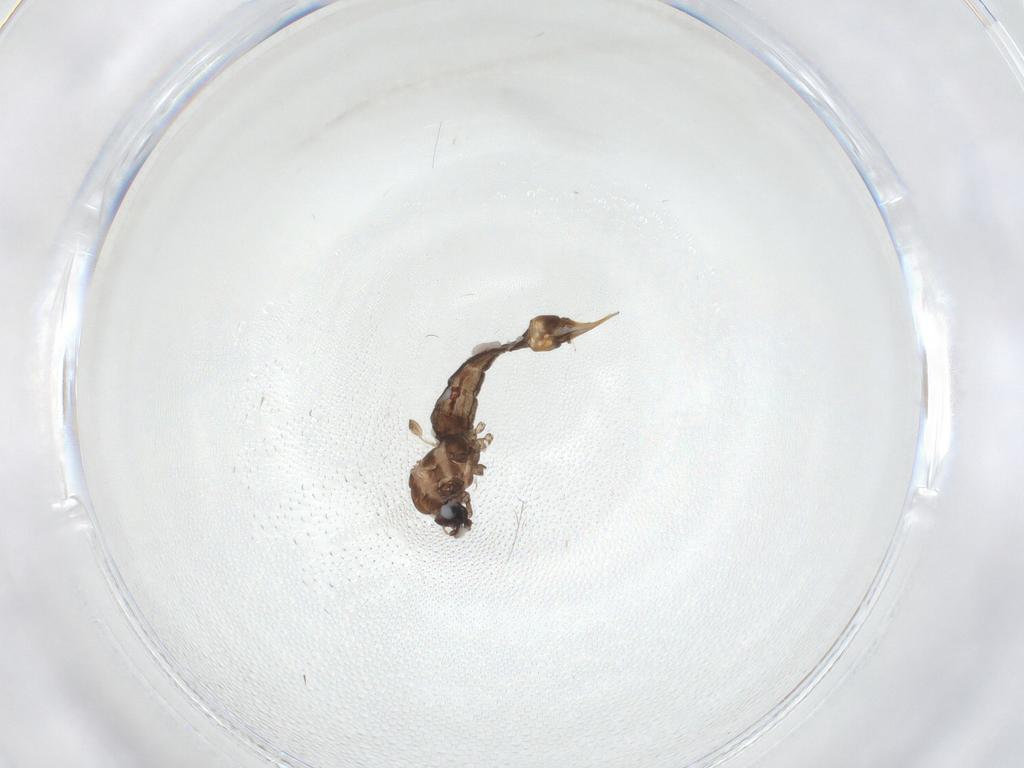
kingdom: Animalia
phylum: Arthropoda
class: Insecta
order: Diptera
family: Limoniidae
